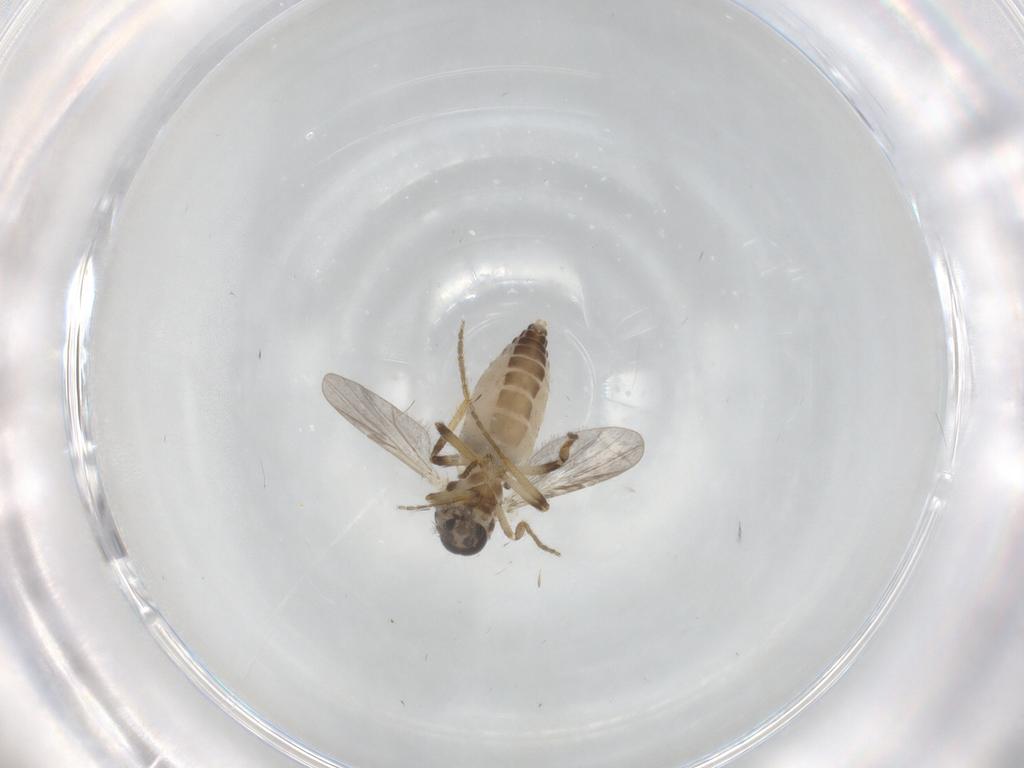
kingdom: Animalia
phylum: Arthropoda
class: Insecta
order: Diptera
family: Ceratopogonidae
